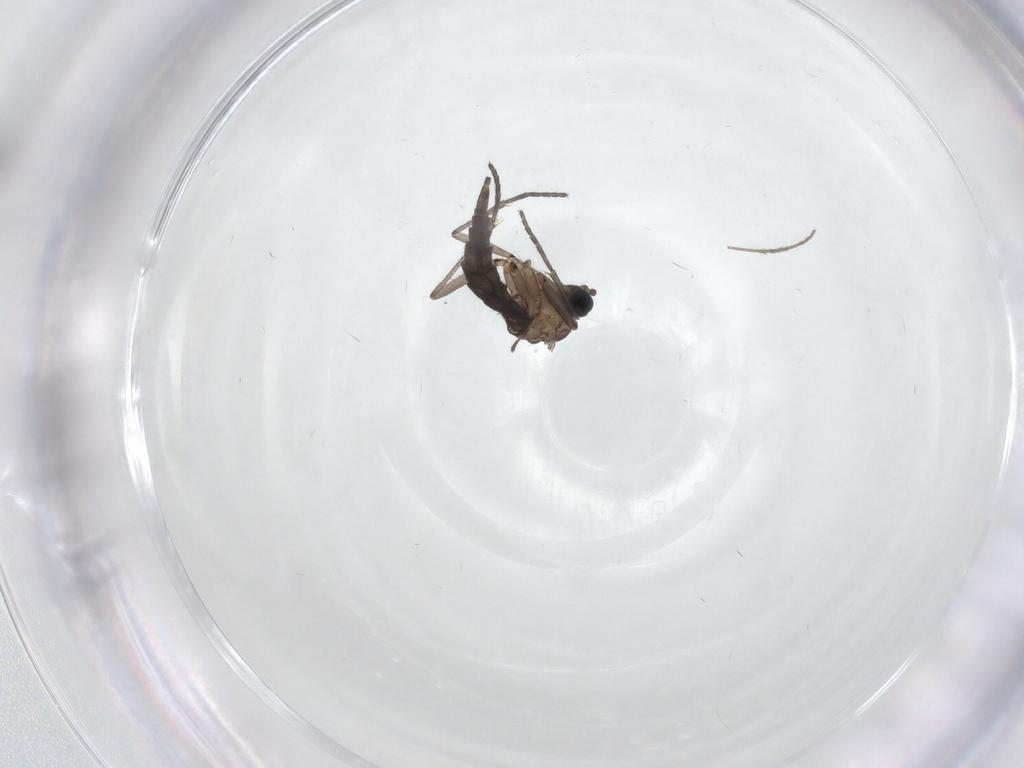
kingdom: Animalia
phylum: Arthropoda
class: Insecta
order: Diptera
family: Sciaridae
